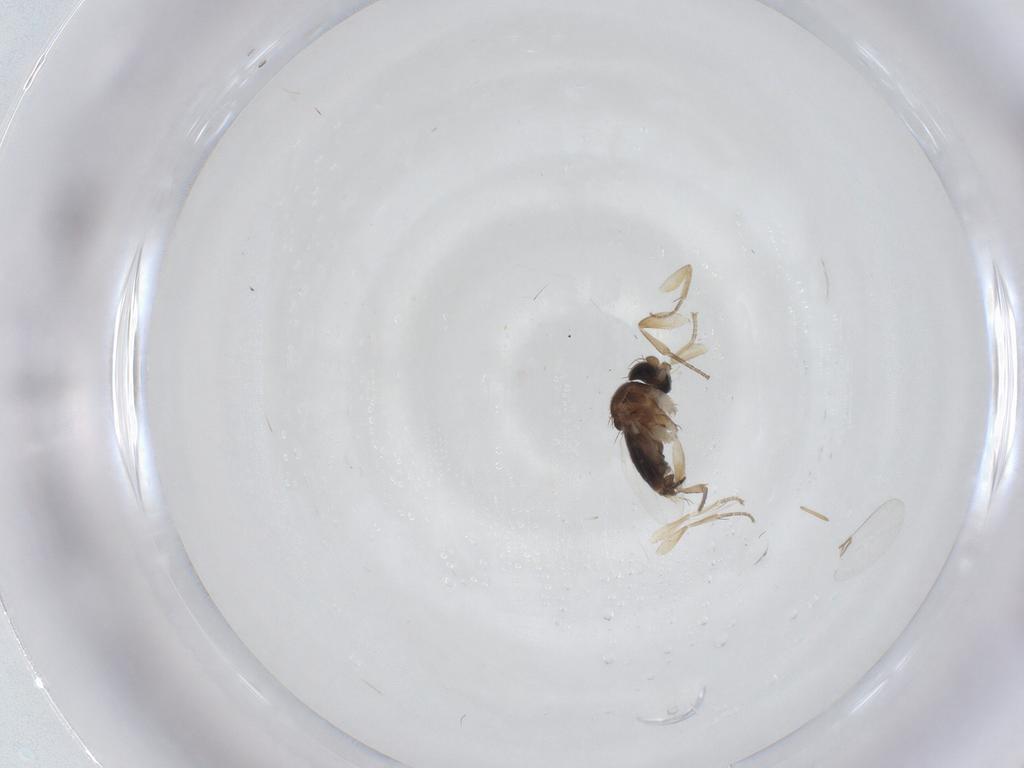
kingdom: Animalia
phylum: Arthropoda
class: Insecta
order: Diptera
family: Phoridae
